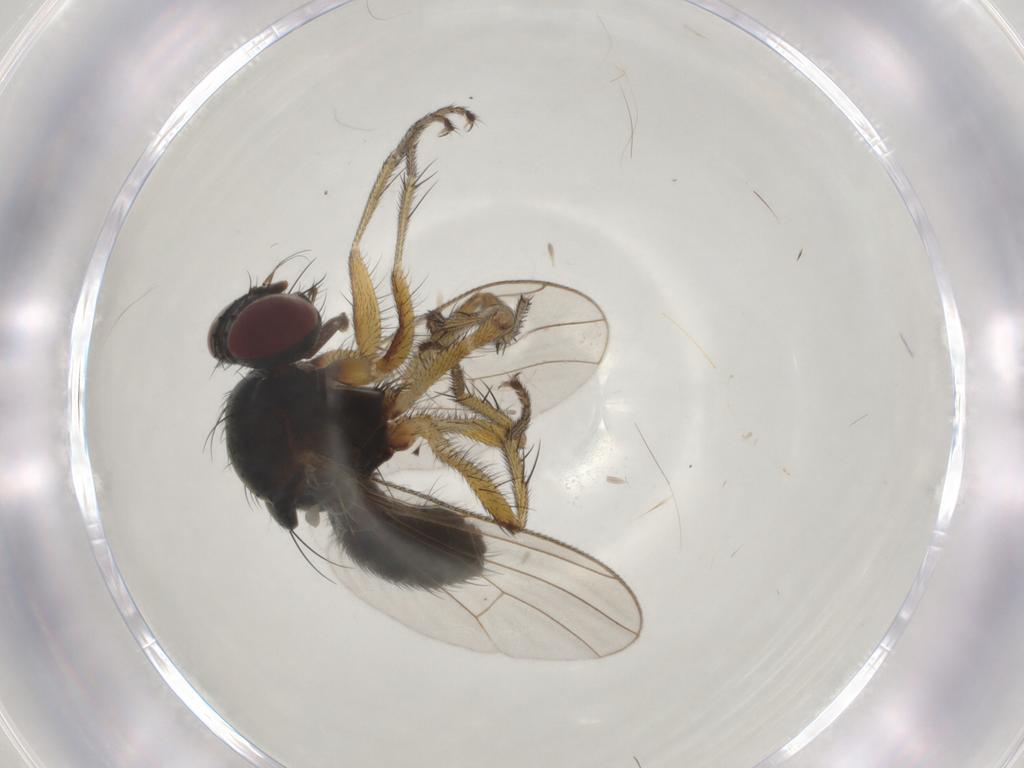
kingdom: Animalia
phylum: Arthropoda
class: Insecta
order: Diptera
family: Muscidae
